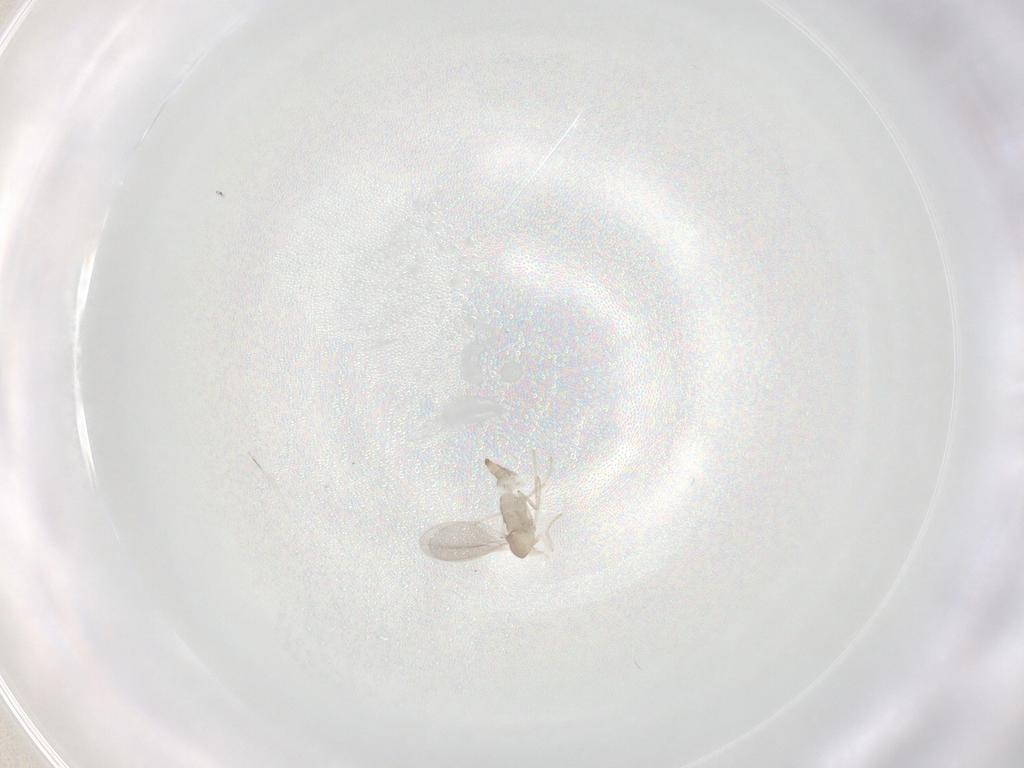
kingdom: Animalia
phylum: Arthropoda
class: Insecta
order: Diptera
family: Cecidomyiidae
